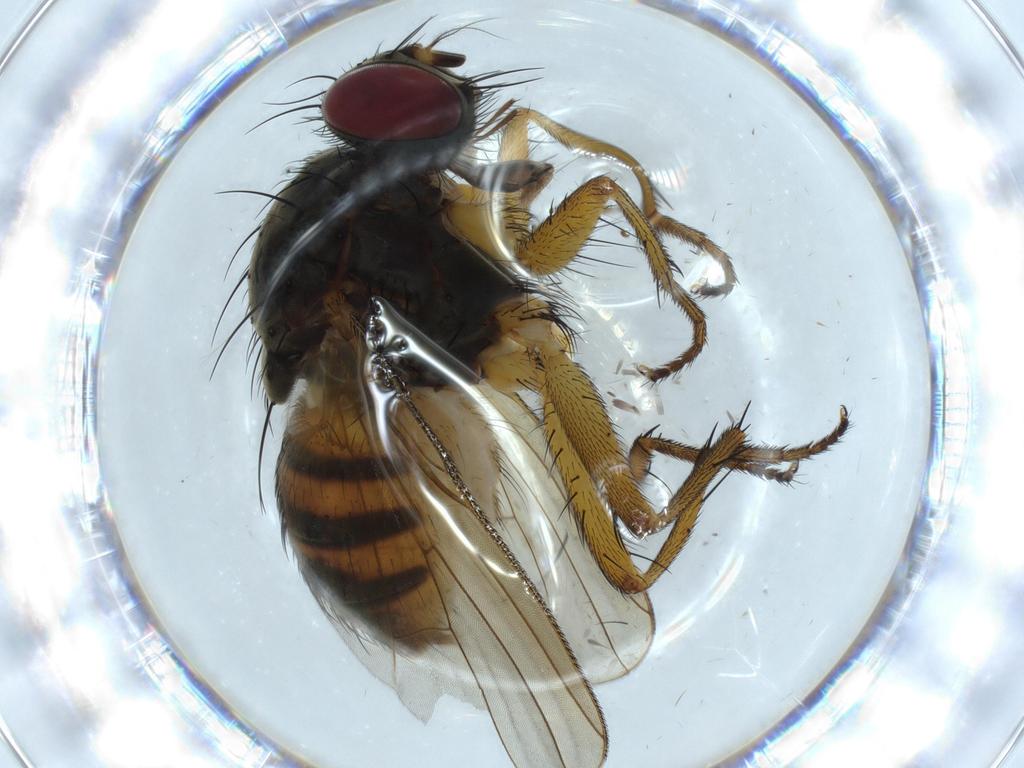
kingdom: Animalia
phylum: Arthropoda
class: Insecta
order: Diptera
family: Muscidae
